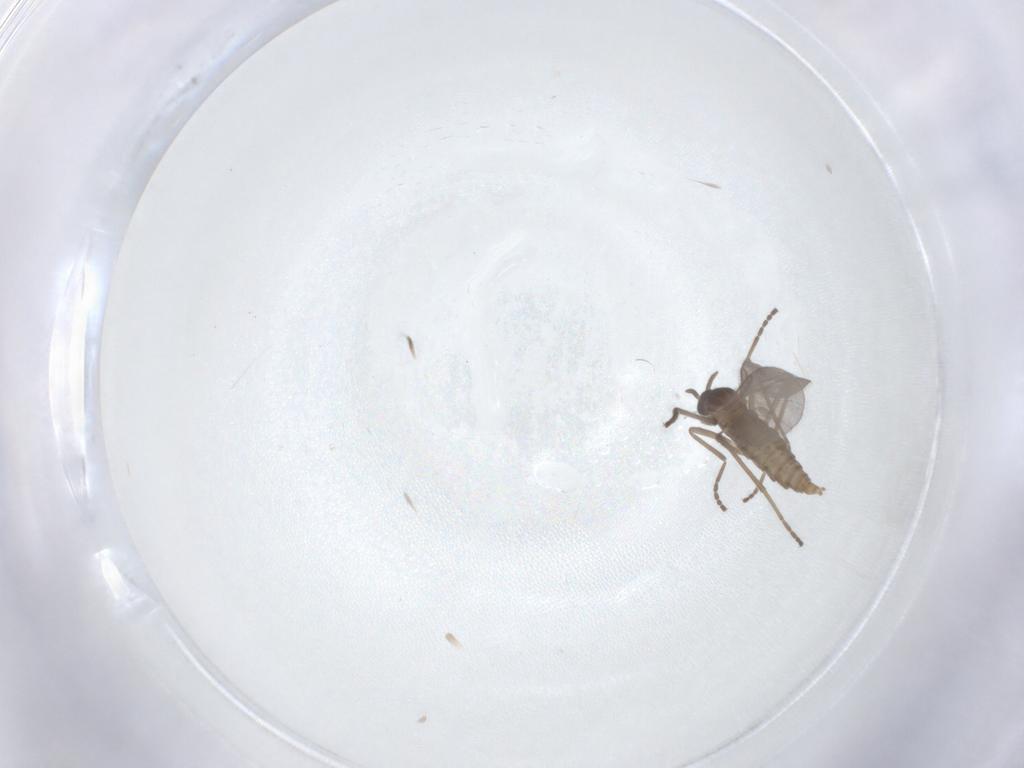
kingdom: Animalia
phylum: Arthropoda
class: Insecta
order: Diptera
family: Cecidomyiidae
